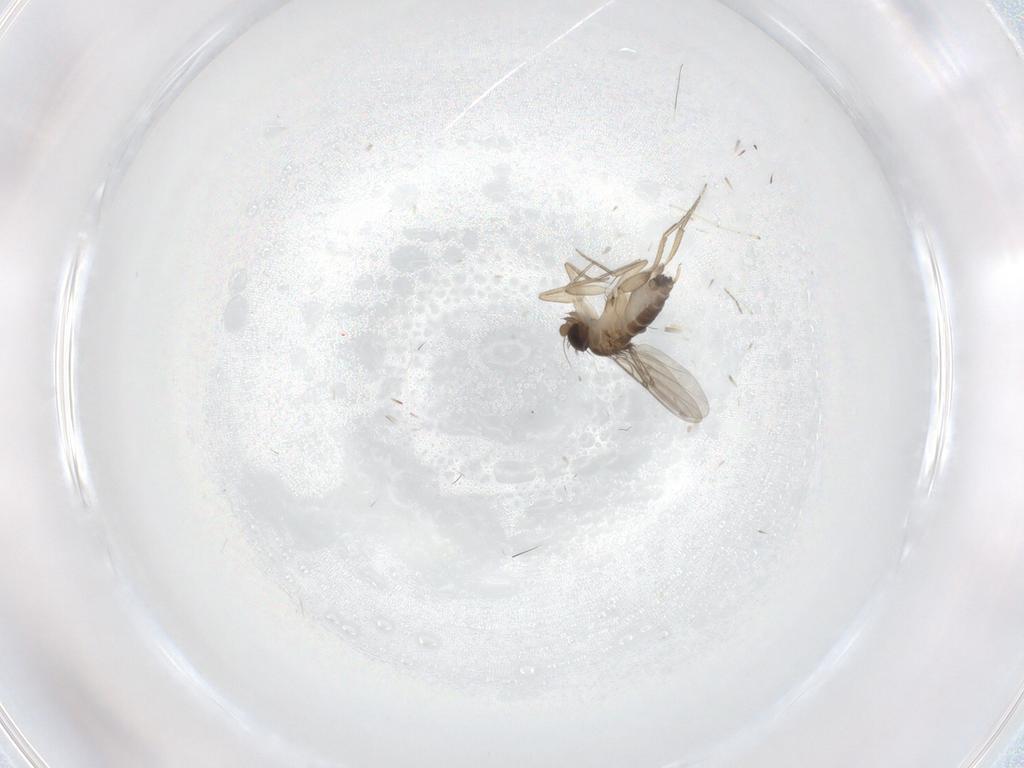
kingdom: Animalia
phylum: Arthropoda
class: Insecta
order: Diptera
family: Phoridae
